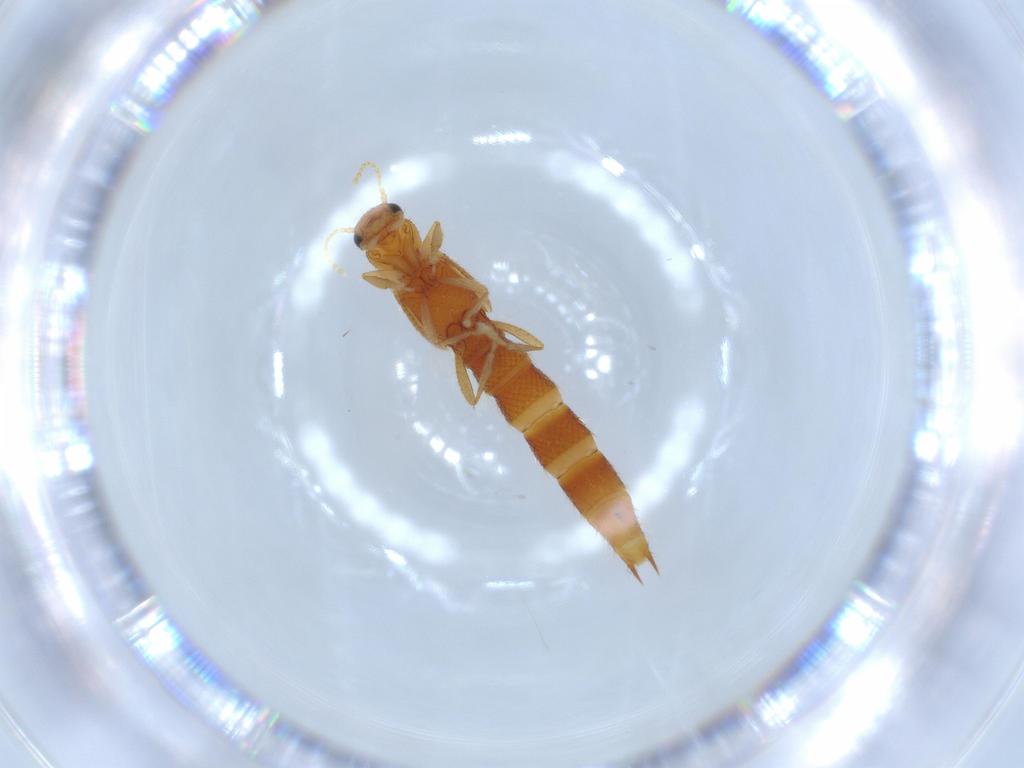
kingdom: Animalia
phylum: Arthropoda
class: Insecta
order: Coleoptera
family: Staphylinidae
